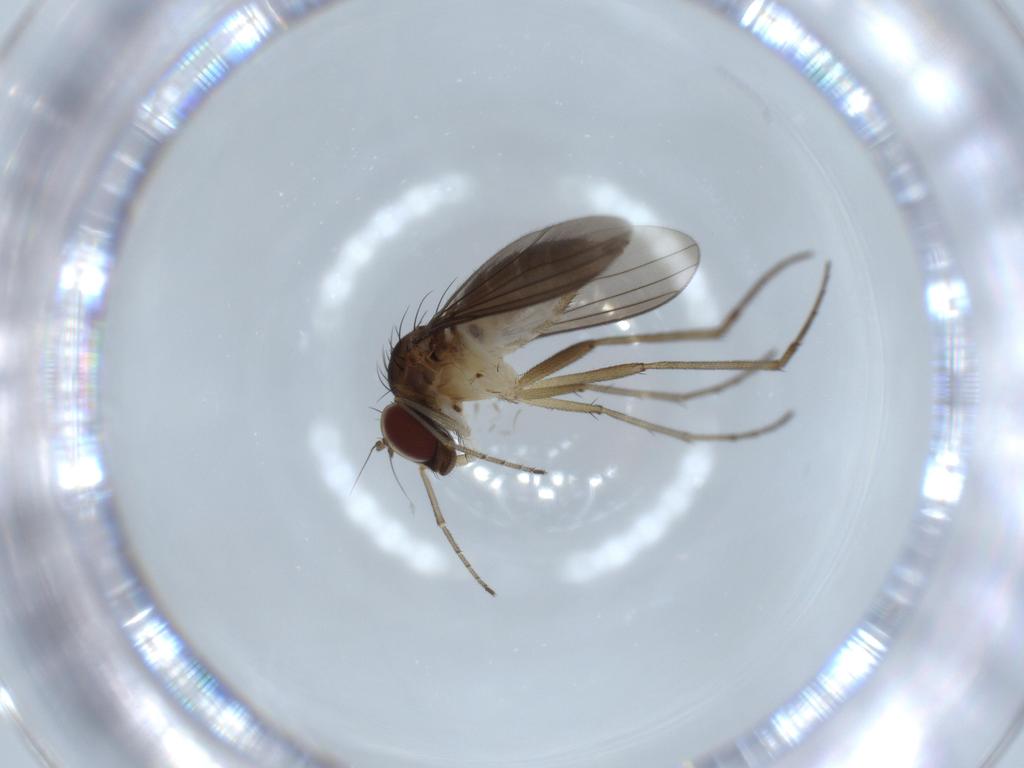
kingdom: Animalia
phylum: Arthropoda
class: Insecta
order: Diptera
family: Dolichopodidae
